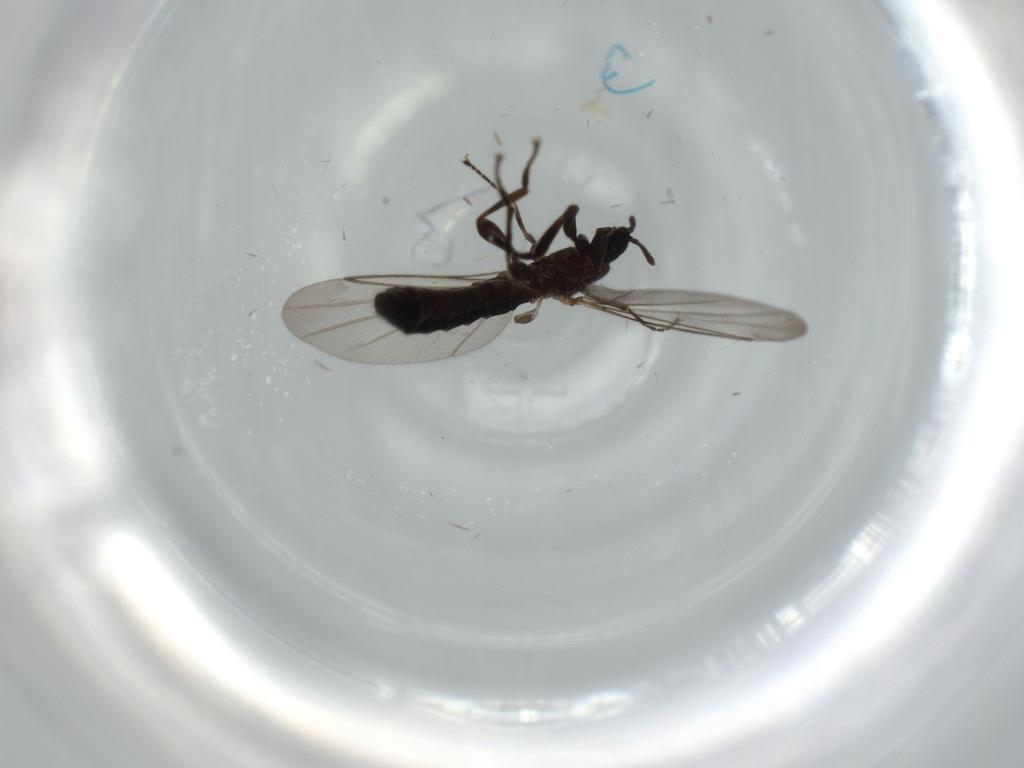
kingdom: Animalia
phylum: Arthropoda
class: Insecta
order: Diptera
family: Scatopsidae
